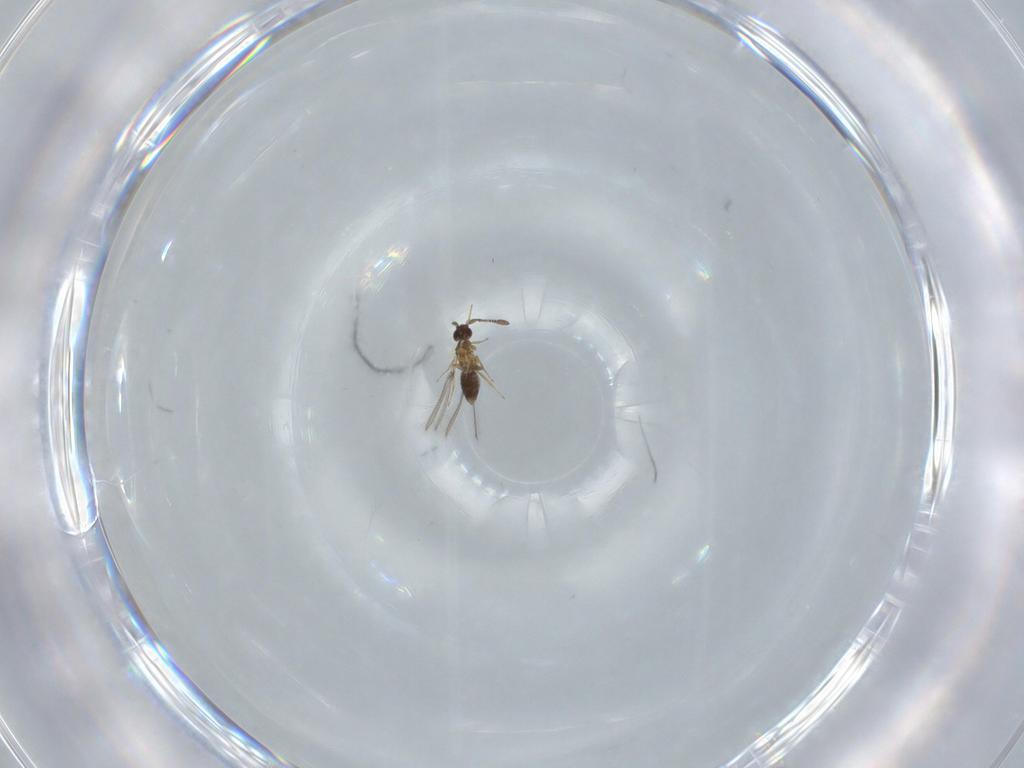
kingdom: Animalia
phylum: Arthropoda
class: Insecta
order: Hymenoptera
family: Mymaridae
